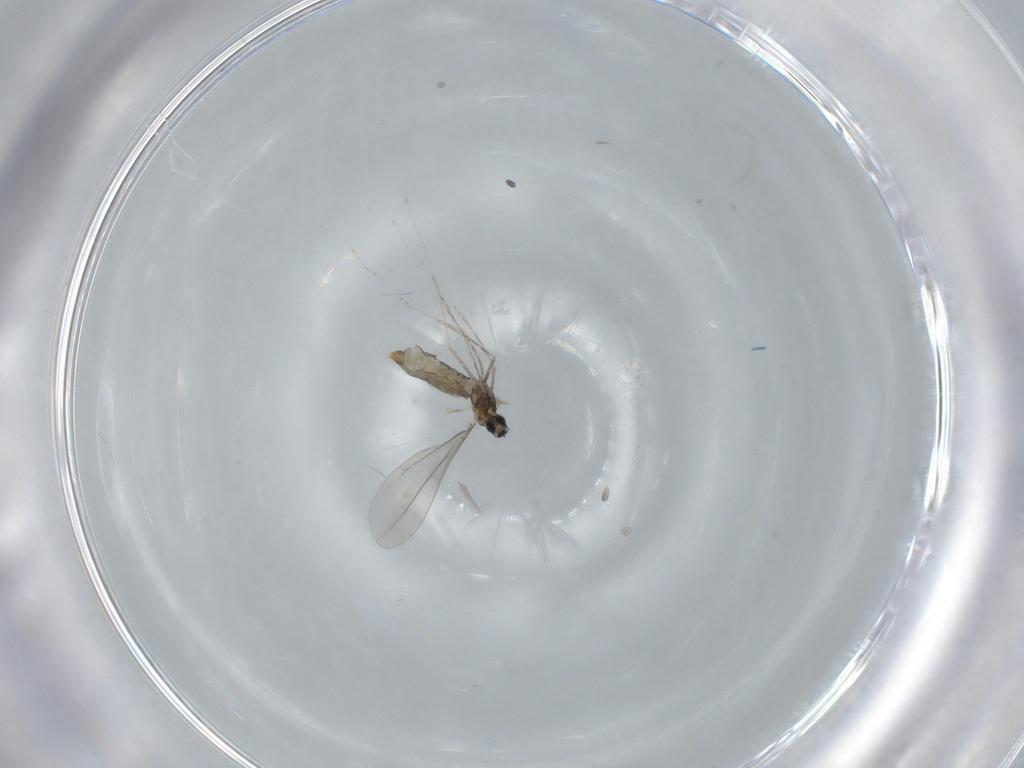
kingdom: Animalia
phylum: Arthropoda
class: Insecta
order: Diptera
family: Cecidomyiidae
